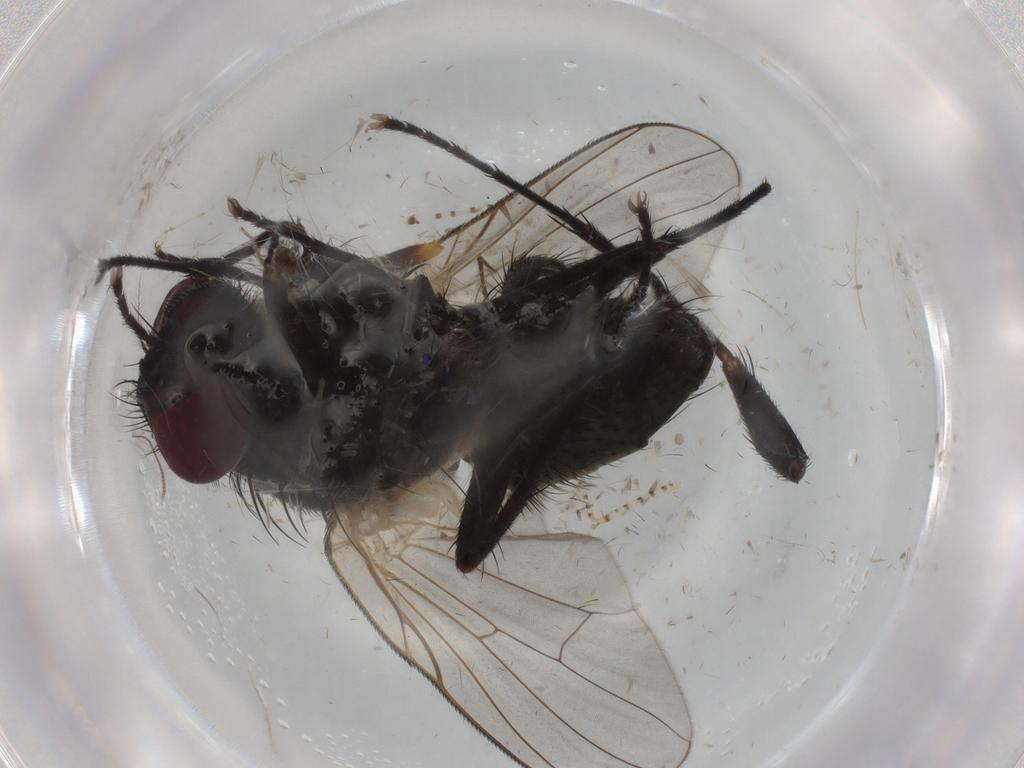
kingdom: Animalia
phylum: Arthropoda
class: Insecta
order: Diptera
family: Muscidae
